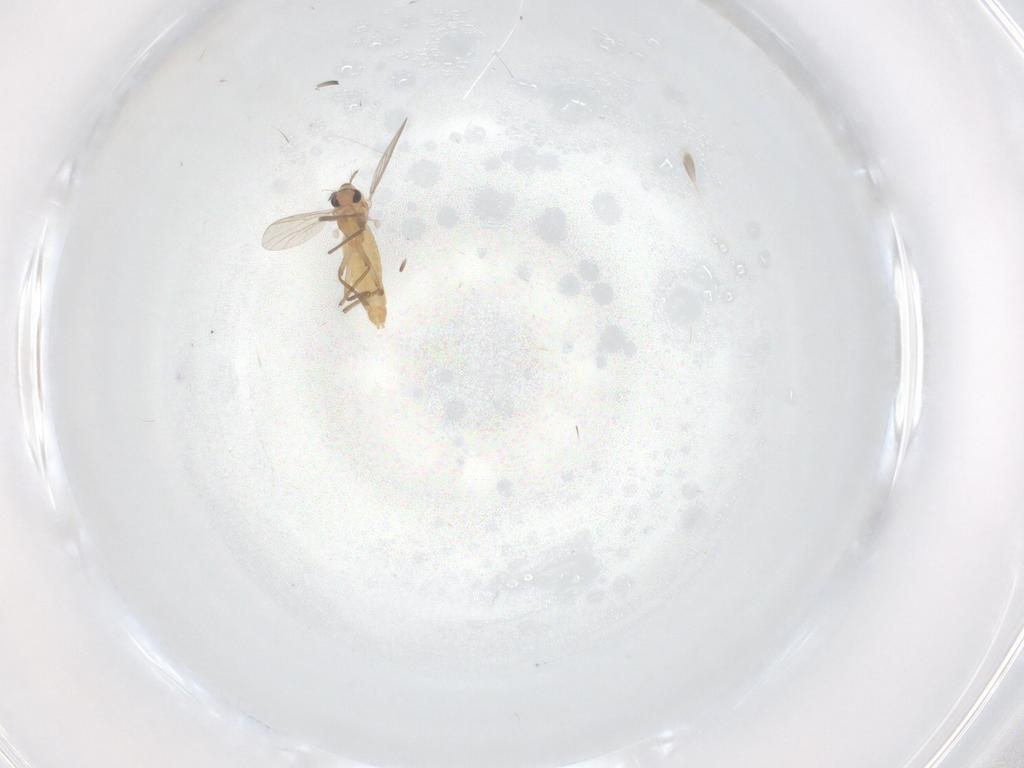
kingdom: Animalia
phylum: Arthropoda
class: Insecta
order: Diptera
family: Chironomidae
